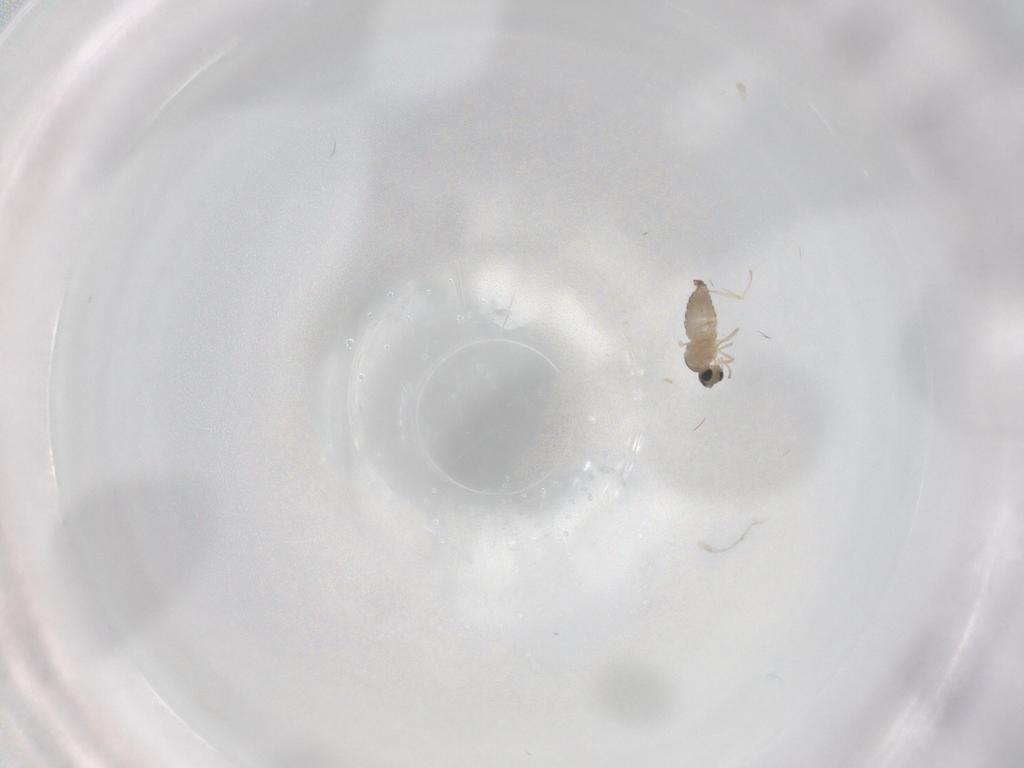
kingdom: Animalia
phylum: Arthropoda
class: Insecta
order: Diptera
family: Cecidomyiidae
